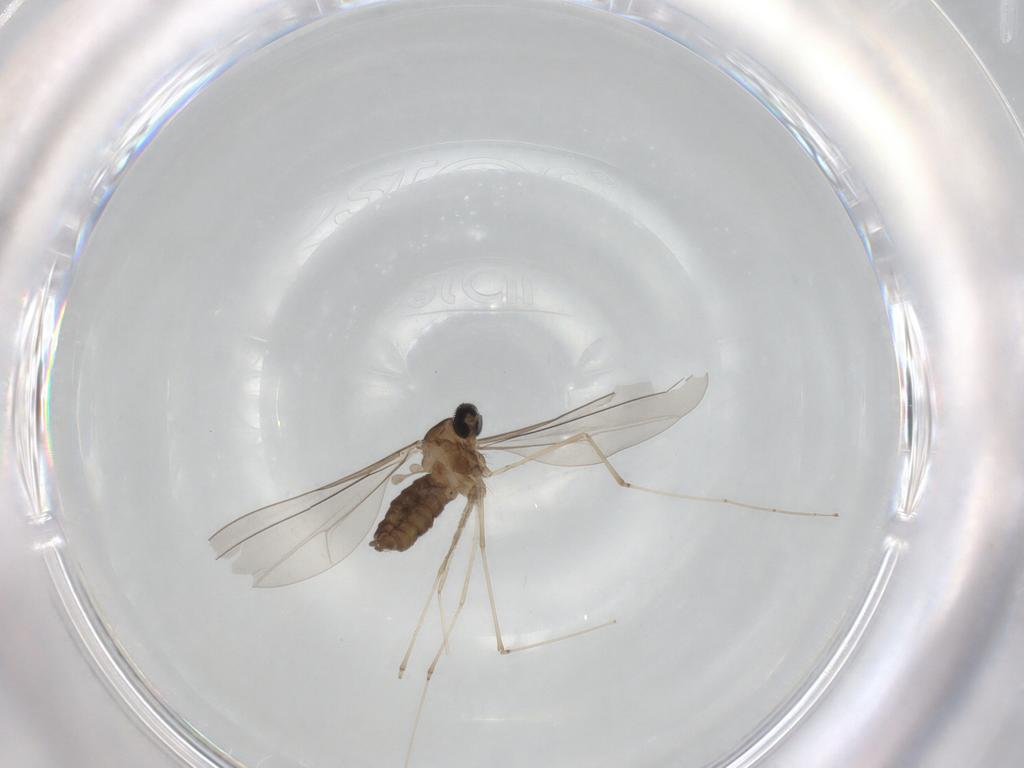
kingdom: Animalia
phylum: Arthropoda
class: Insecta
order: Diptera
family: Cecidomyiidae
